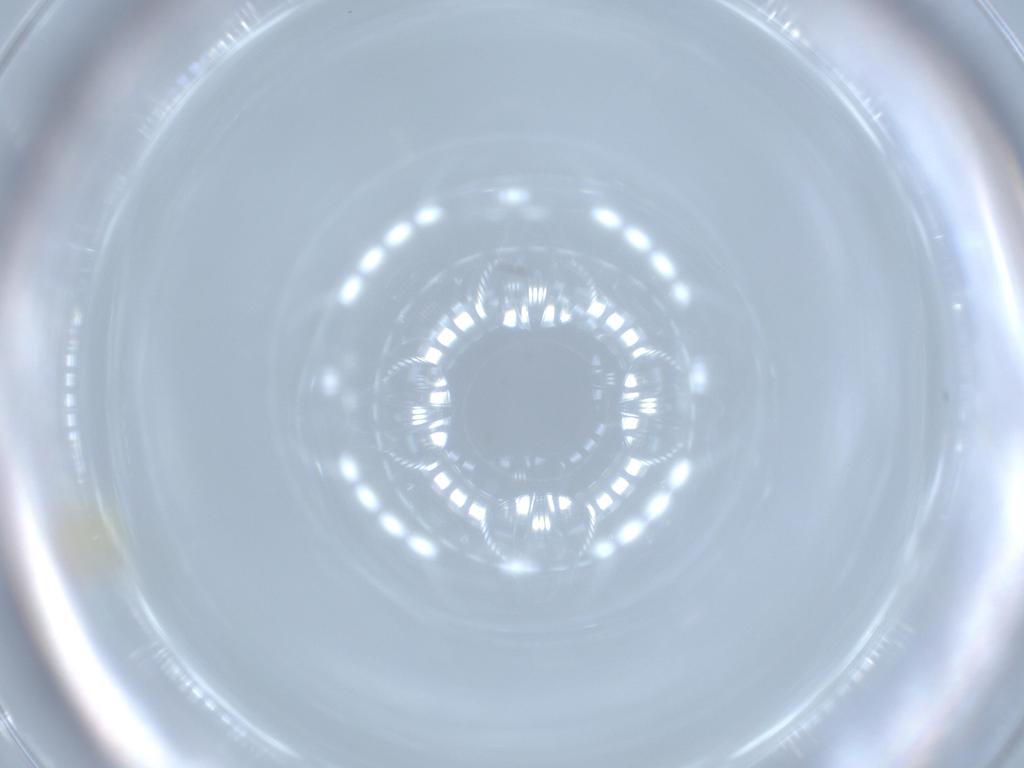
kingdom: Animalia
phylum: Arthropoda
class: Insecta
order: Hemiptera
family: Aleyrodidae
